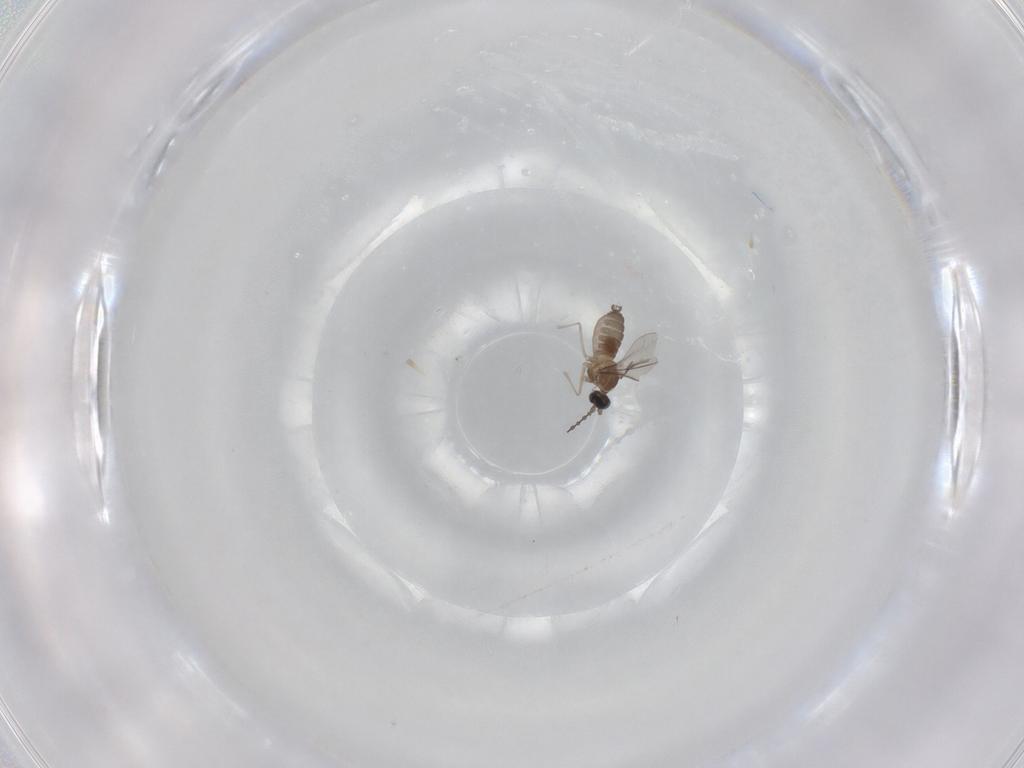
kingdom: Animalia
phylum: Arthropoda
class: Insecta
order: Diptera
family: Cecidomyiidae
